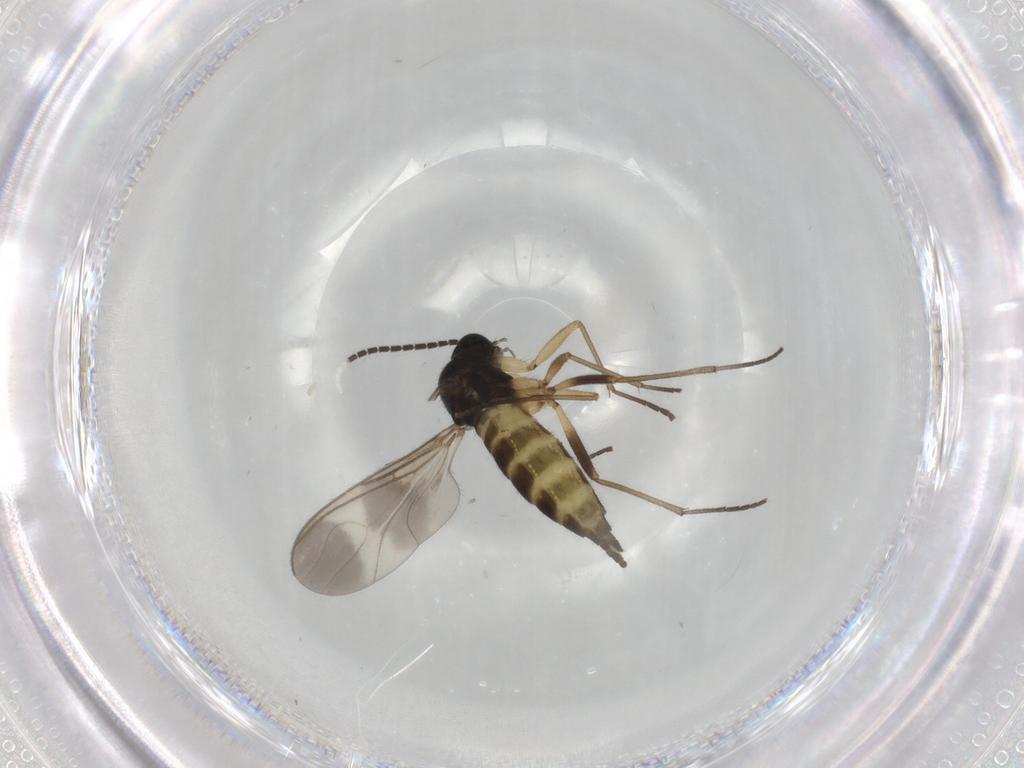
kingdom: Animalia
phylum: Arthropoda
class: Insecta
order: Diptera
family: Sciaridae
